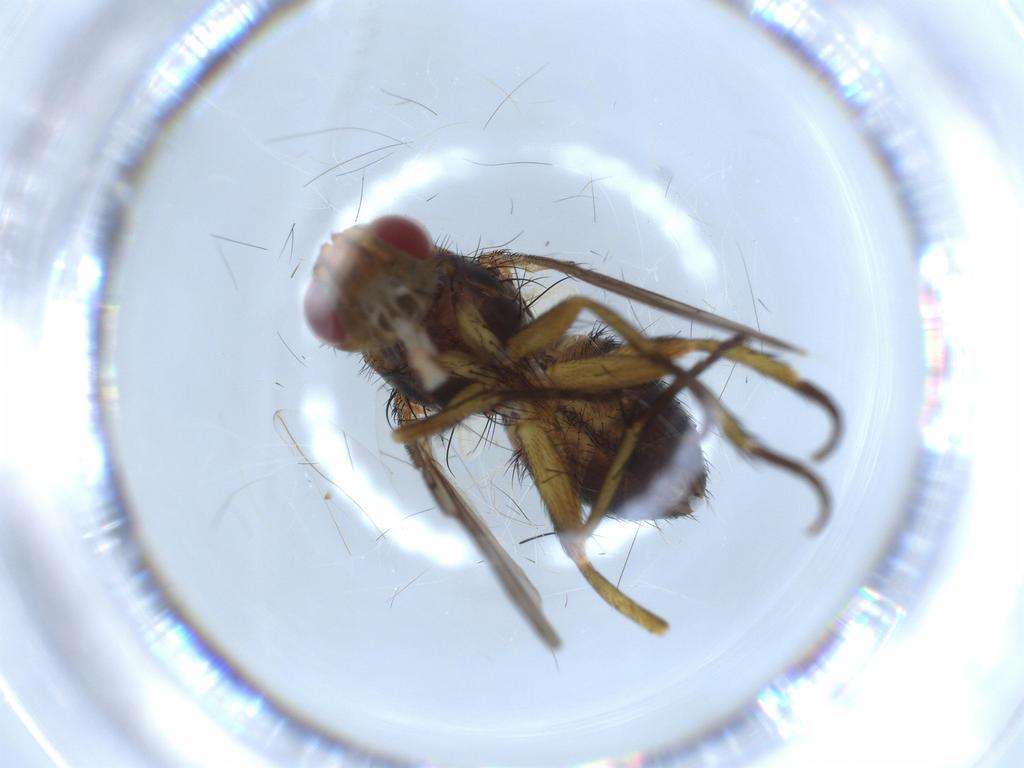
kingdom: Animalia
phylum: Arthropoda
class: Insecta
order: Diptera
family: Tachinidae
